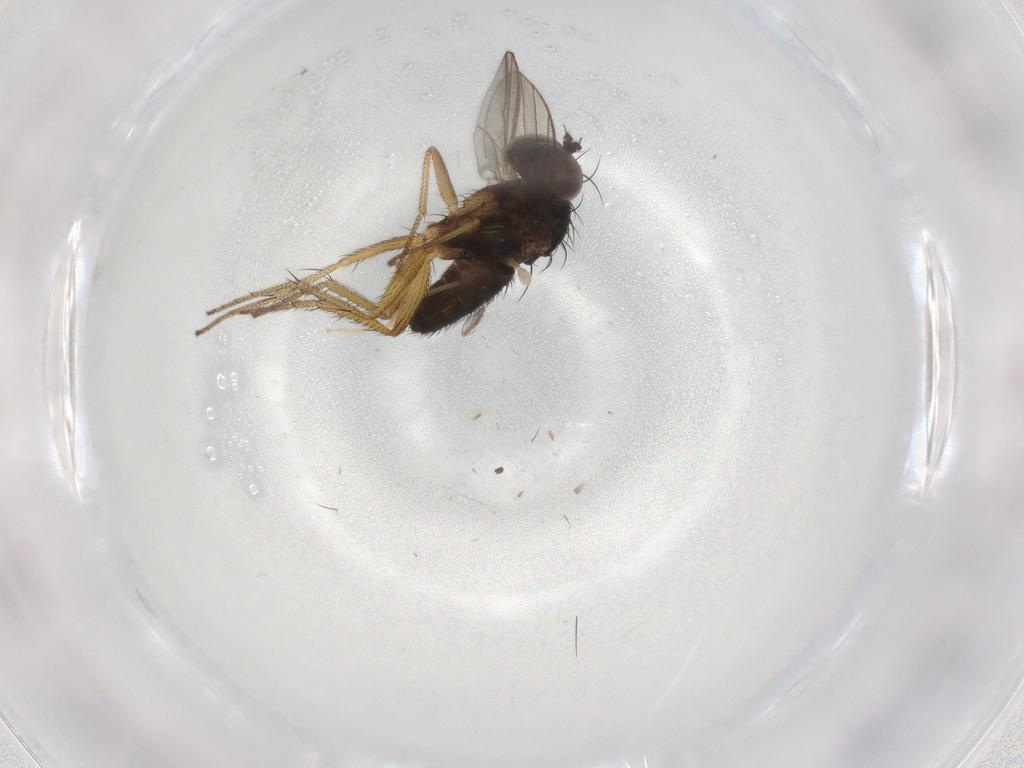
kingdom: Animalia
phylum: Arthropoda
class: Insecta
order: Diptera
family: Dolichopodidae
